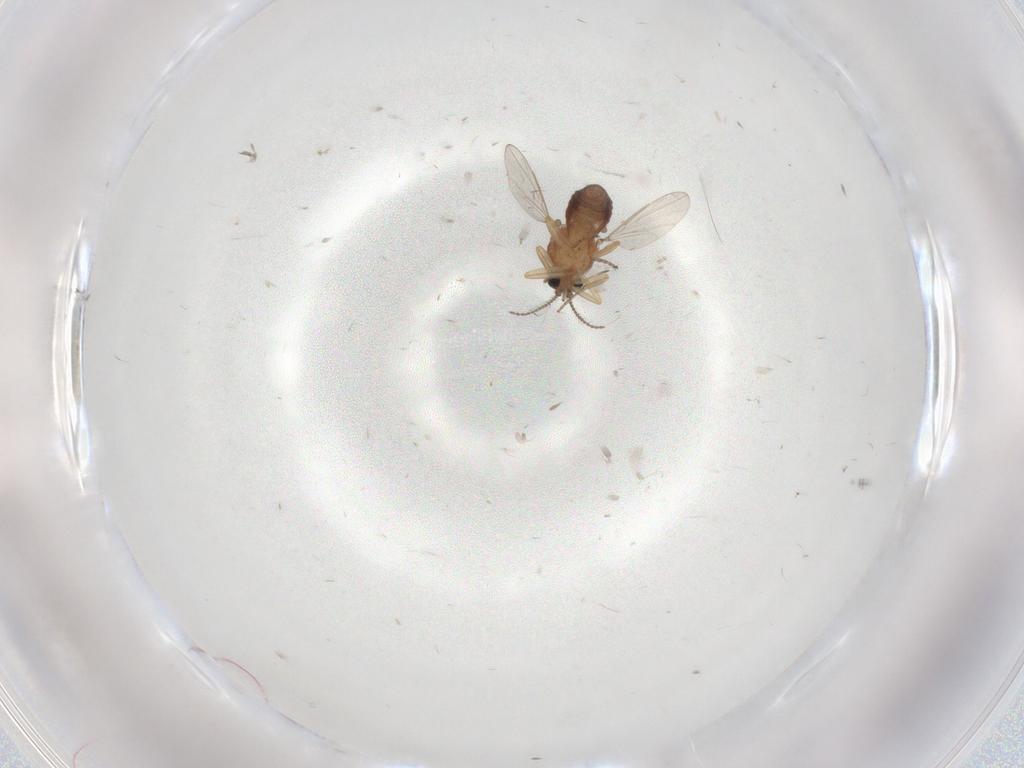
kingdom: Animalia
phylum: Arthropoda
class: Insecta
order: Diptera
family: Ceratopogonidae
